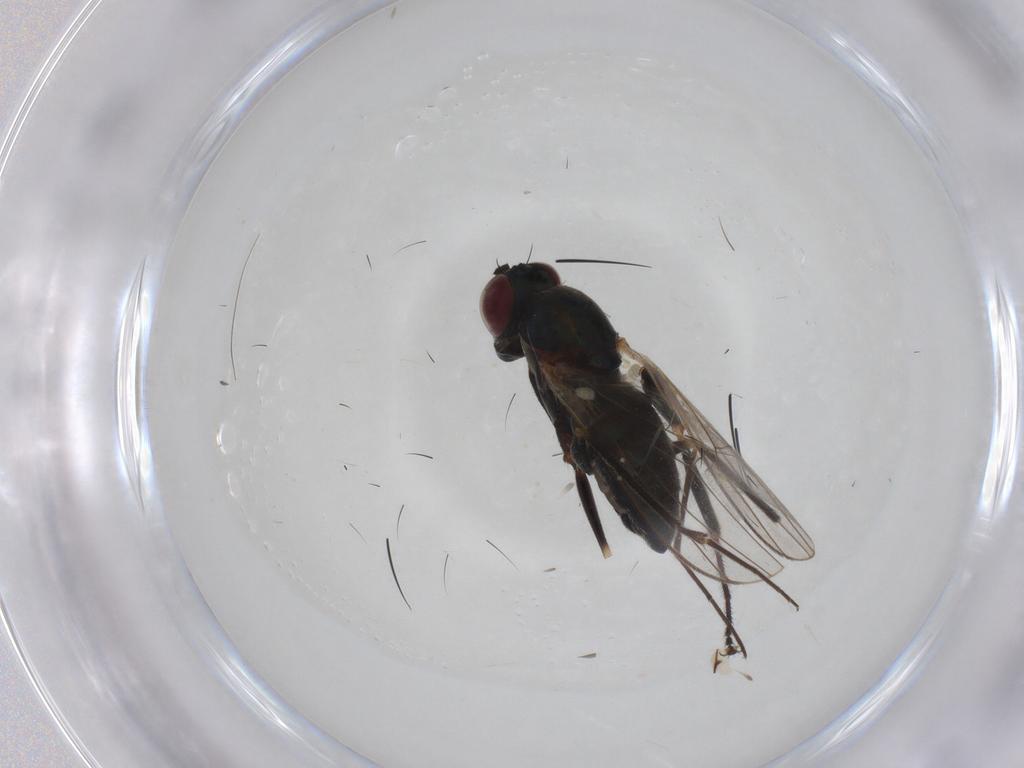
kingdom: Animalia
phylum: Arthropoda
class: Insecta
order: Diptera
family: Dolichopodidae
